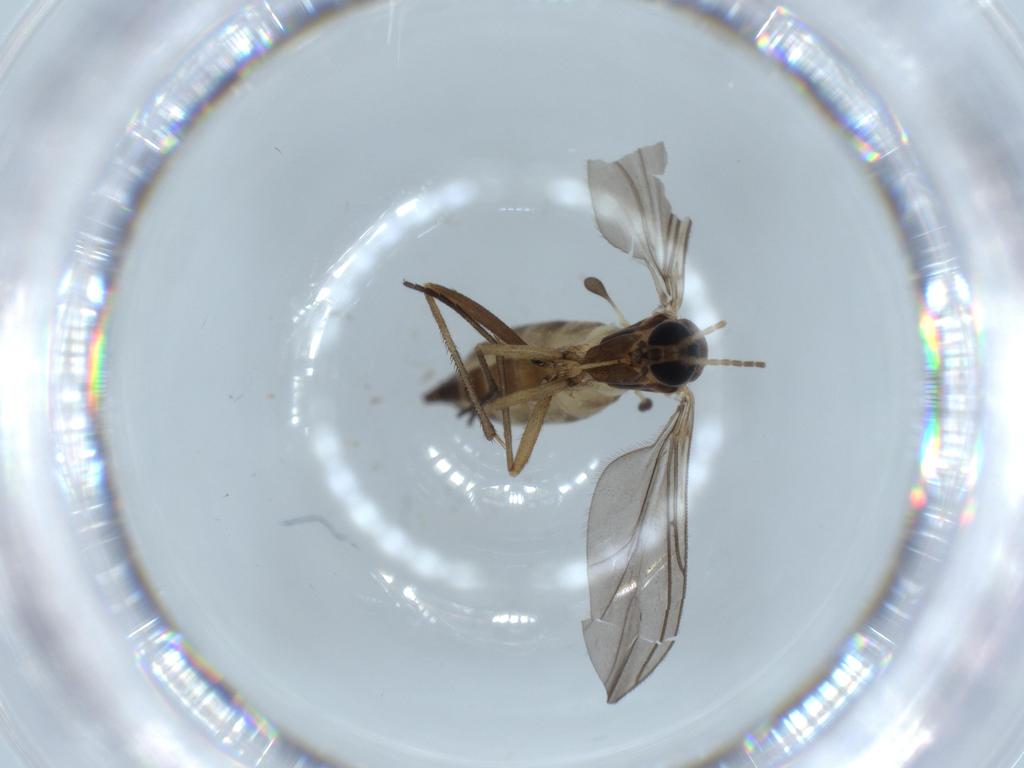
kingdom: Animalia
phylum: Arthropoda
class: Insecta
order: Diptera
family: Sciaridae
